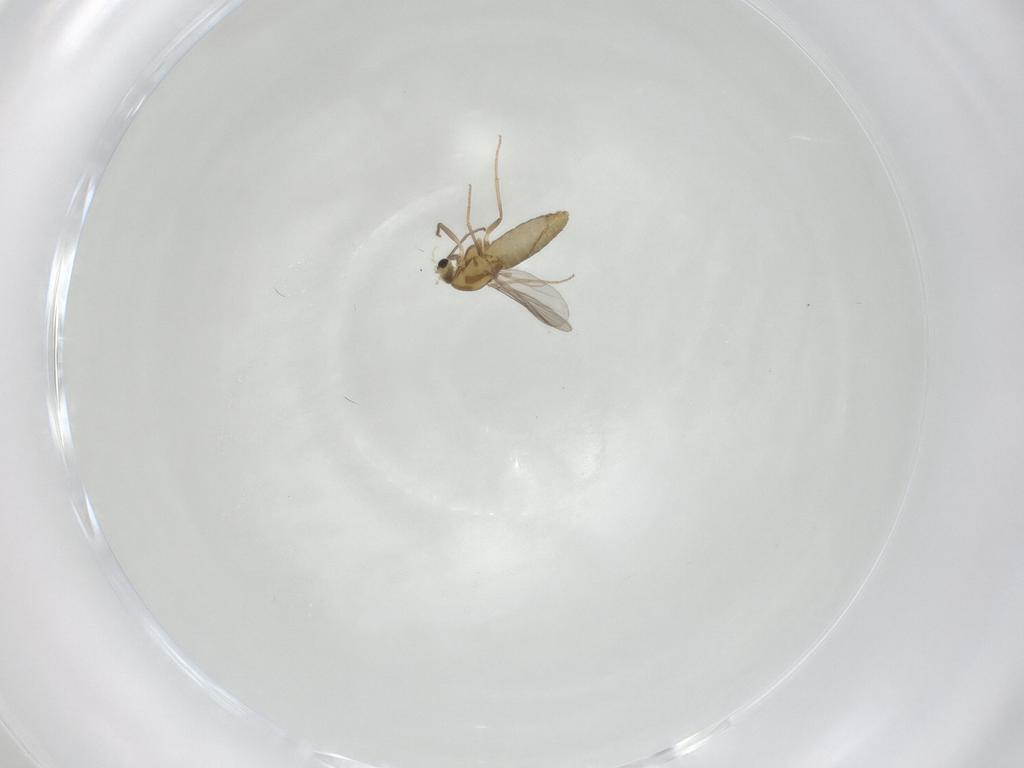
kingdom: Animalia
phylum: Arthropoda
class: Insecta
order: Diptera
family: Chironomidae
